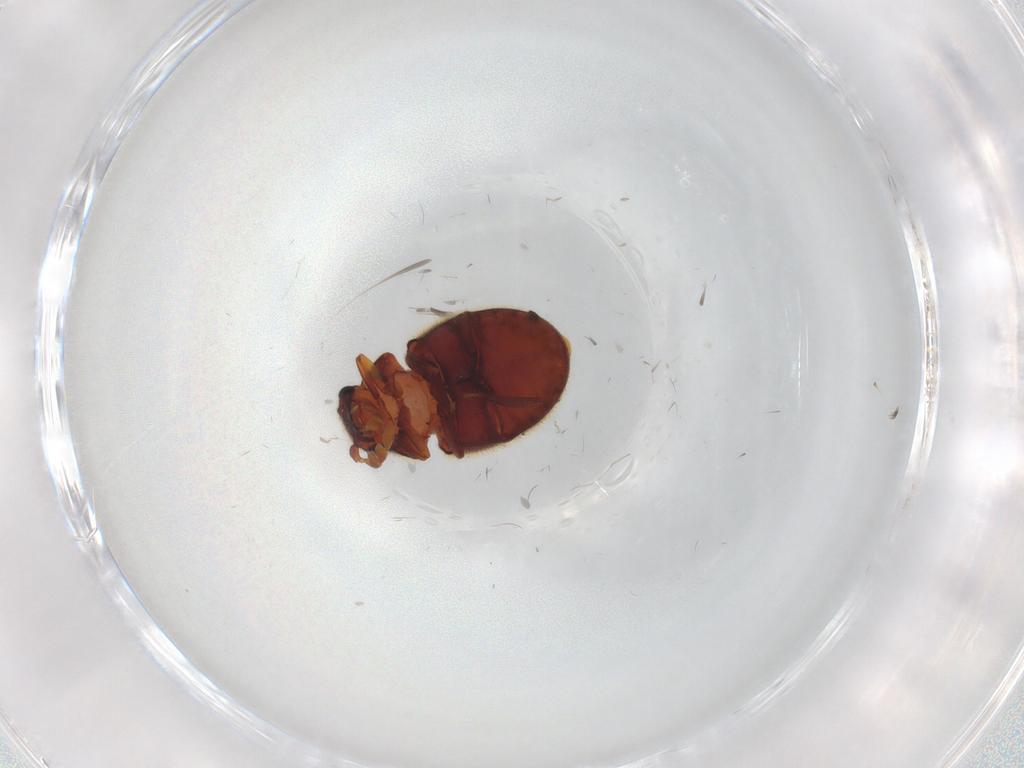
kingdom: Animalia
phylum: Arthropoda
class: Insecta
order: Coleoptera
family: Ptinidae
